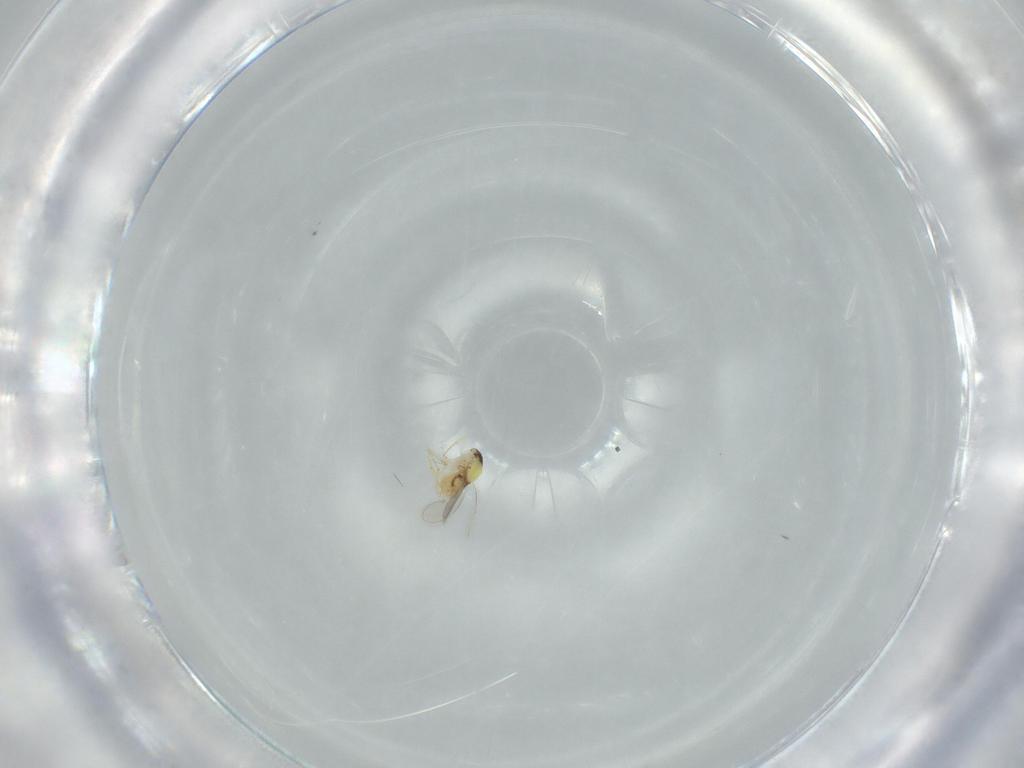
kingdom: Animalia
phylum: Arthropoda
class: Insecta
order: Hymenoptera
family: Aphelinidae
